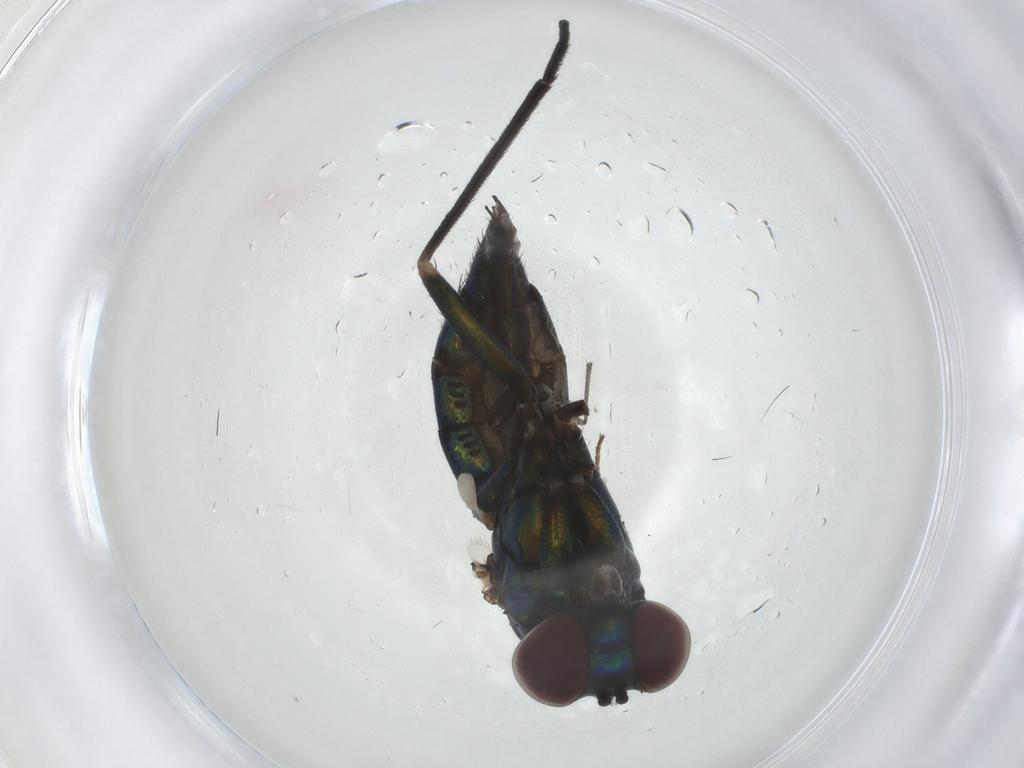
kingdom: Animalia
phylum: Arthropoda
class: Insecta
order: Diptera
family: Dolichopodidae
